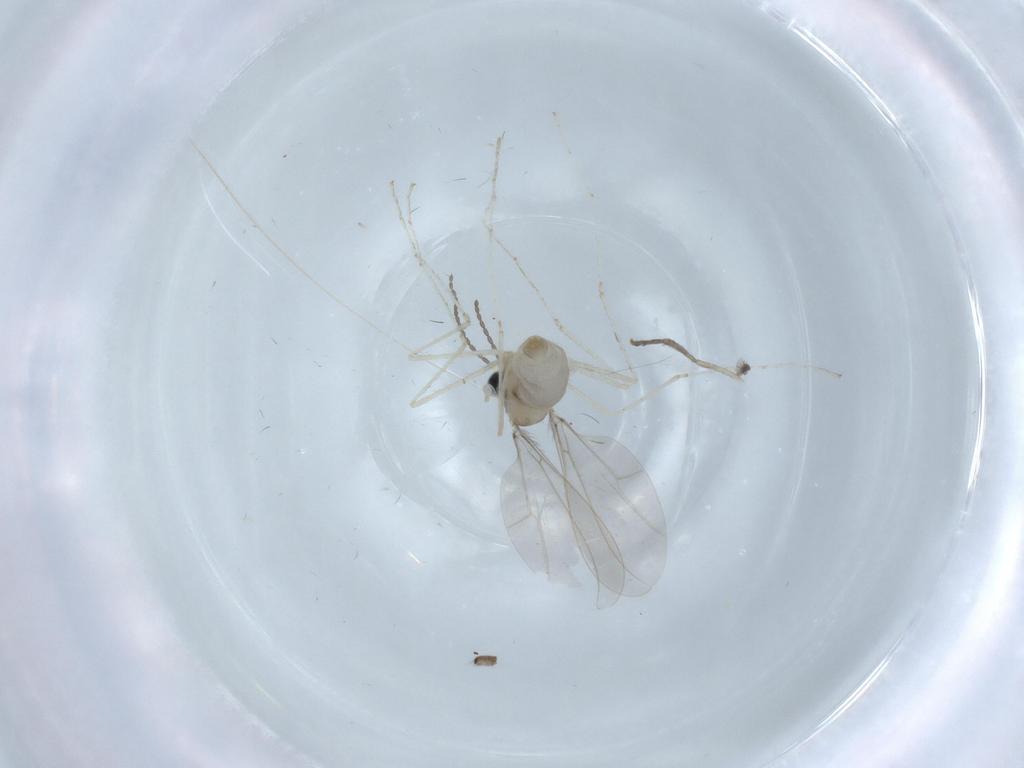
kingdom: Animalia
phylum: Arthropoda
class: Insecta
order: Diptera
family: Cecidomyiidae
